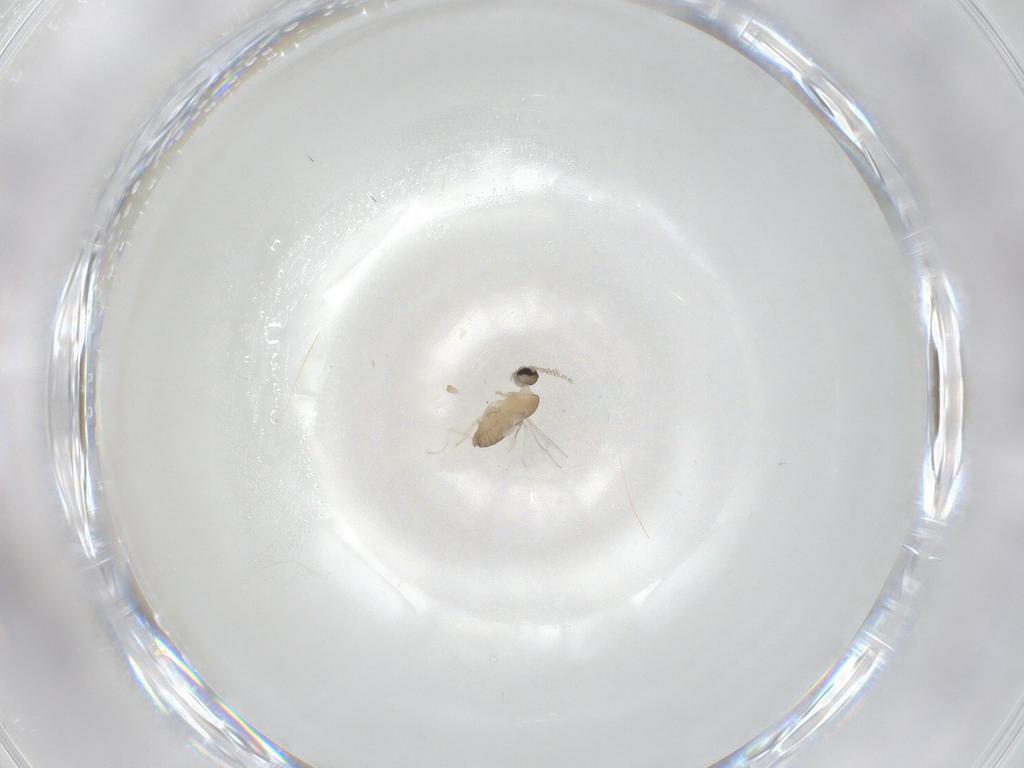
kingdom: Animalia
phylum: Arthropoda
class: Insecta
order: Diptera
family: Cecidomyiidae
